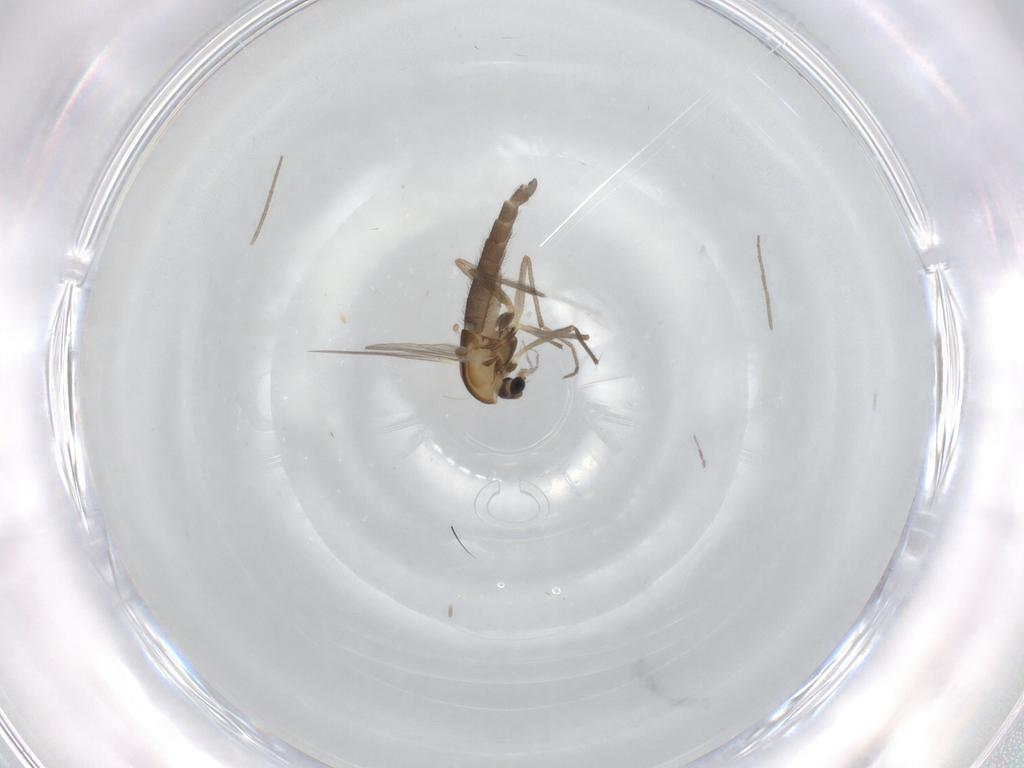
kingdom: Animalia
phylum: Arthropoda
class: Insecta
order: Diptera
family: Chironomidae
